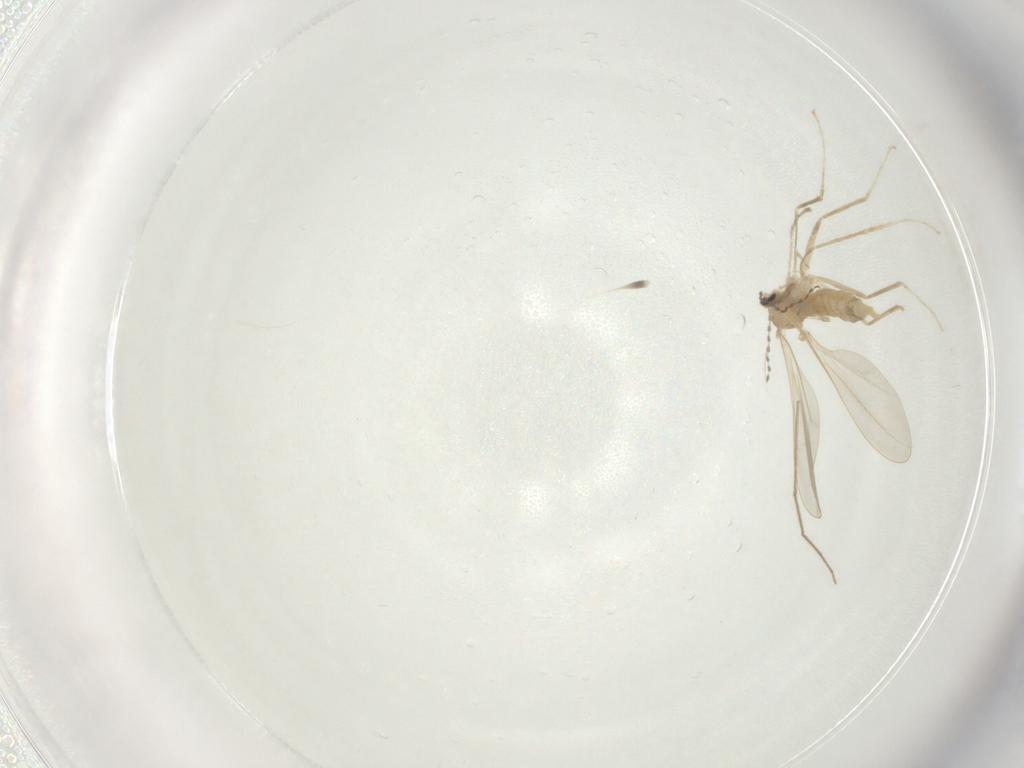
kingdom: Animalia
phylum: Arthropoda
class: Insecta
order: Diptera
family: Cecidomyiidae
